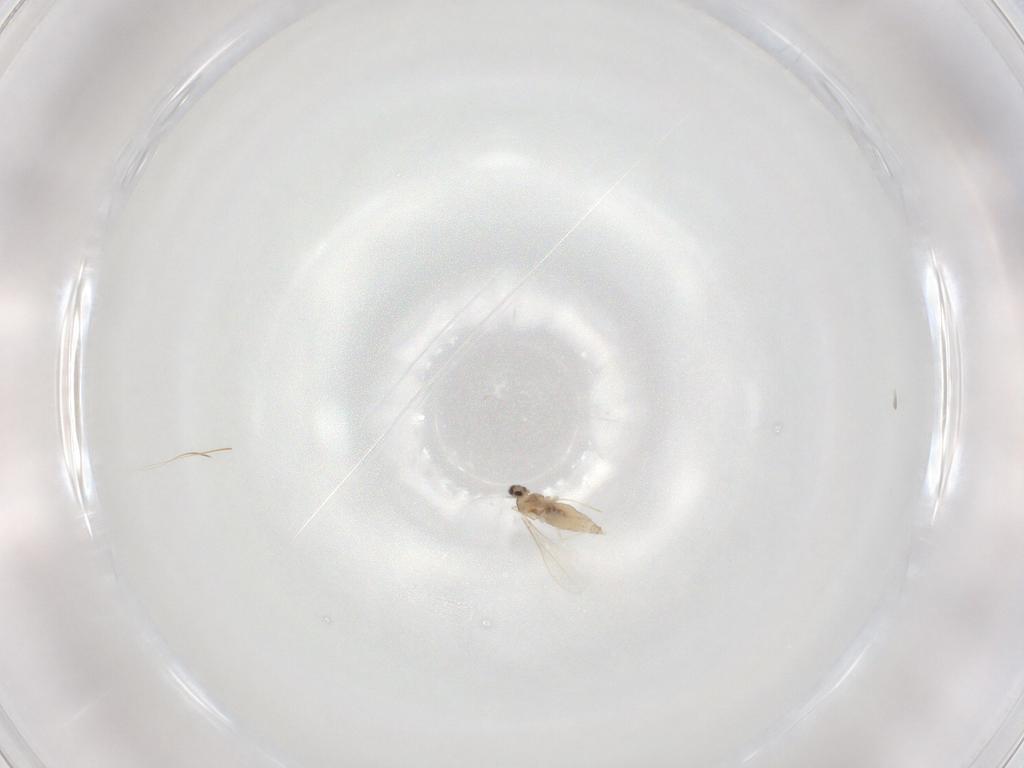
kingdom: Animalia
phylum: Arthropoda
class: Insecta
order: Diptera
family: Cecidomyiidae
